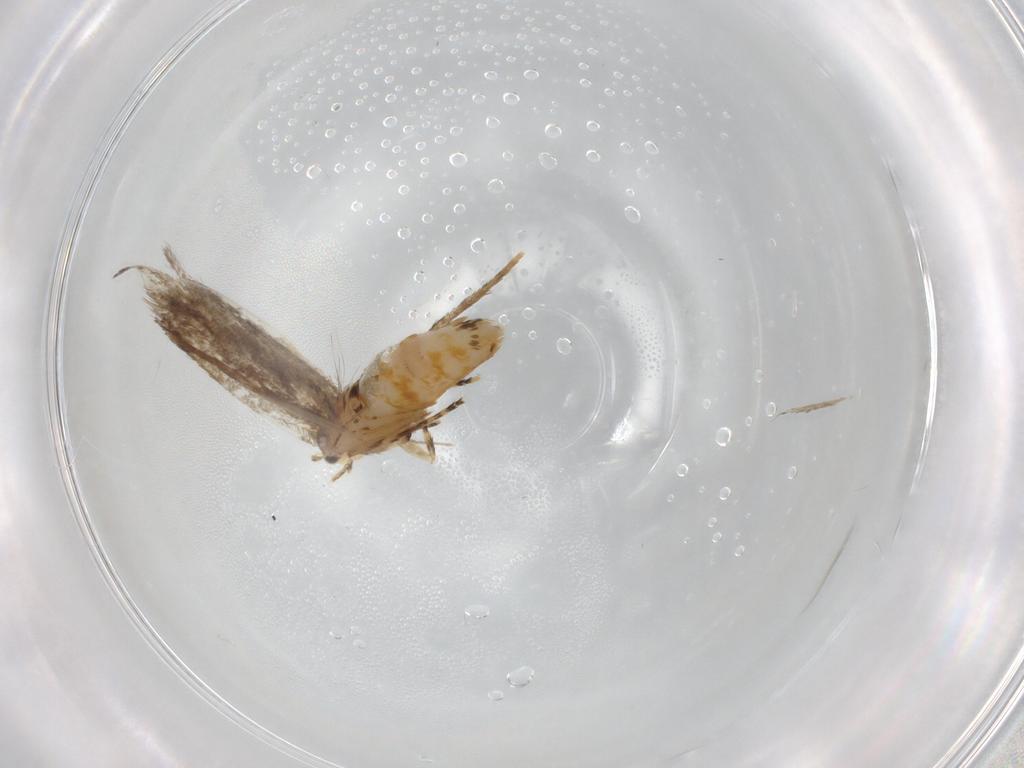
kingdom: Animalia
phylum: Arthropoda
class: Insecta
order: Lepidoptera
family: Incurvariidae
